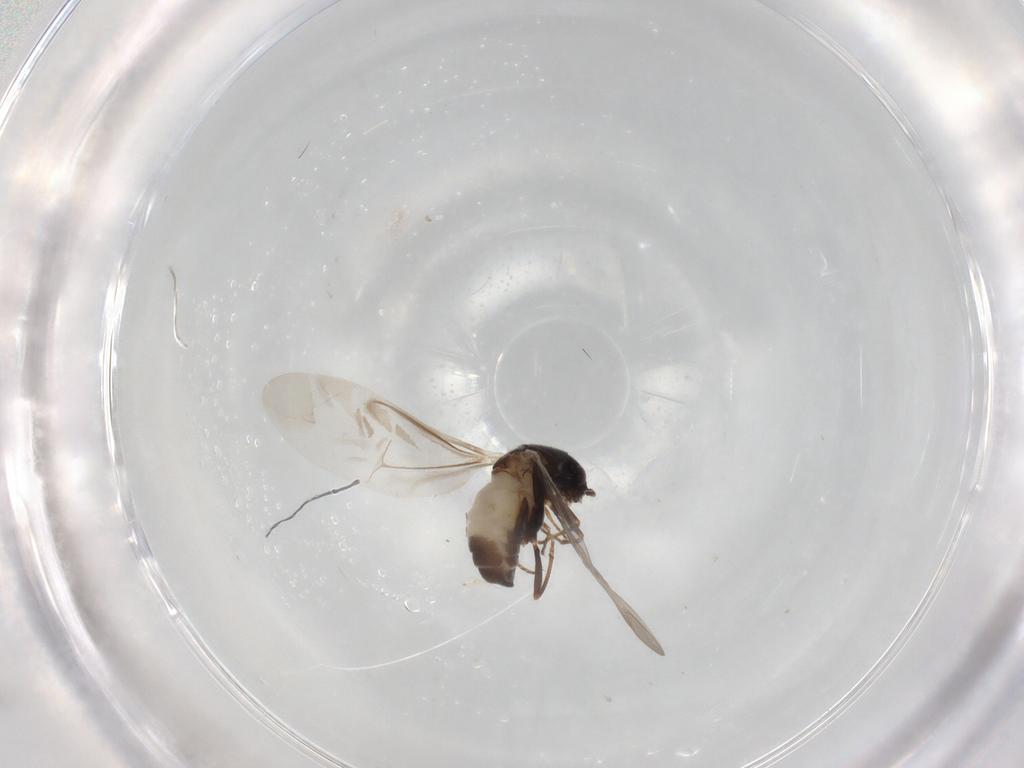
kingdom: Animalia
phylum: Arthropoda
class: Insecta
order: Coleoptera
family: Melyridae
